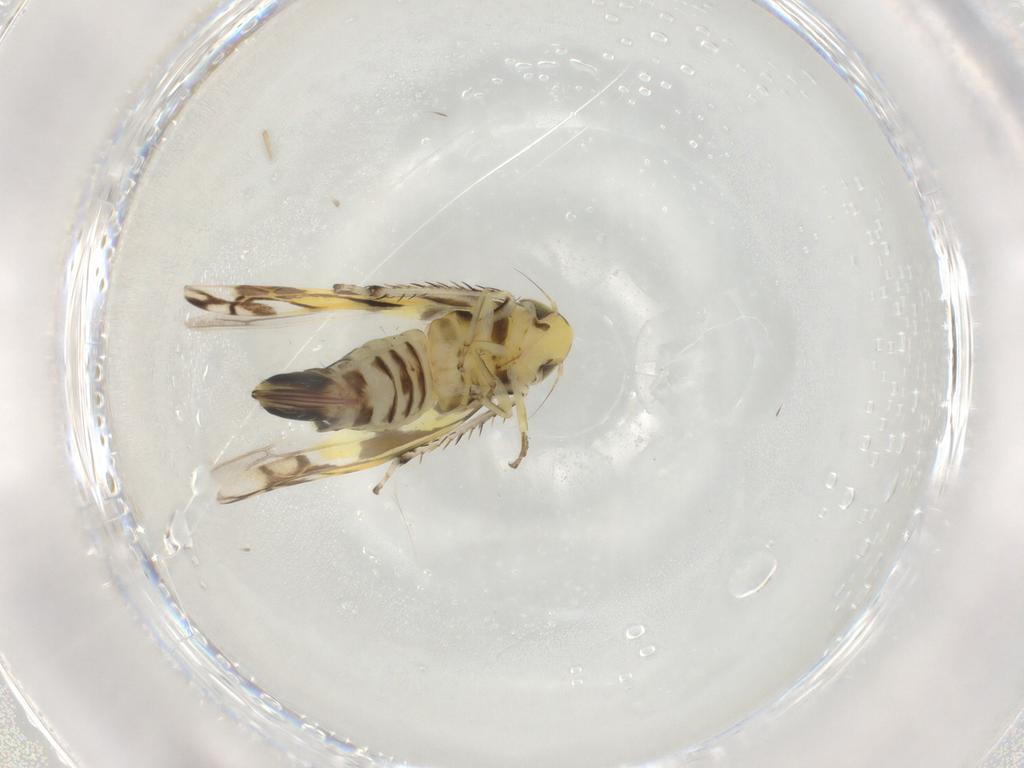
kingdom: Animalia
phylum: Arthropoda
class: Insecta
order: Hemiptera
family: Cicadellidae
